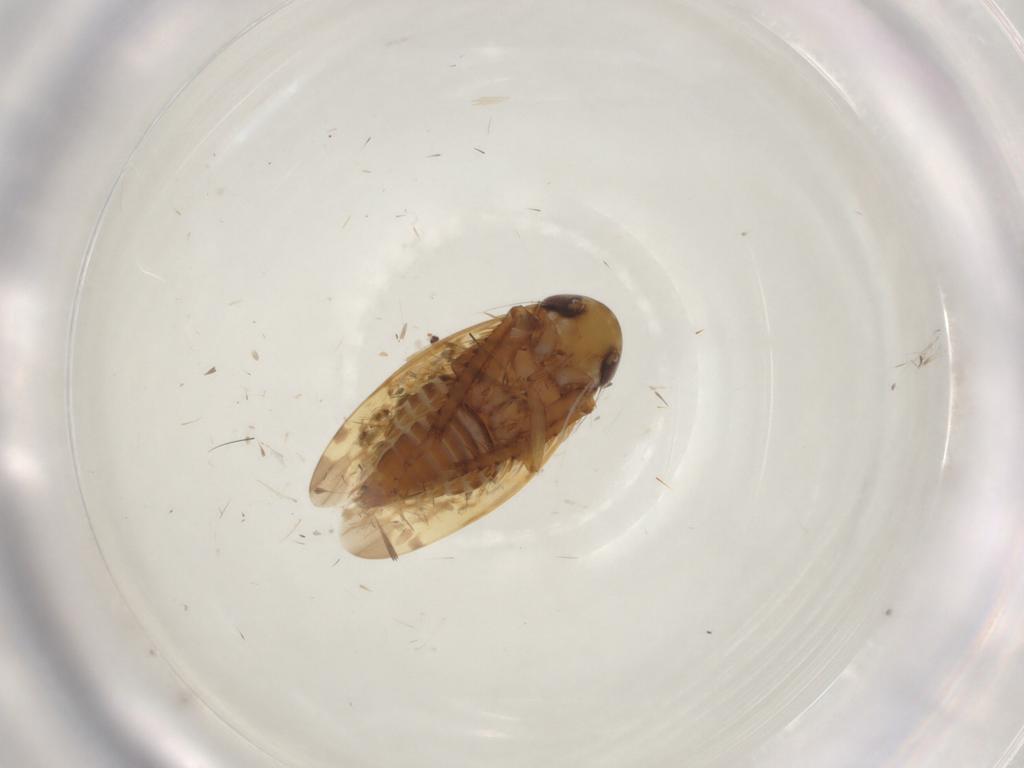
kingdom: Animalia
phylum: Arthropoda
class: Insecta
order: Hemiptera
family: Cicadellidae
